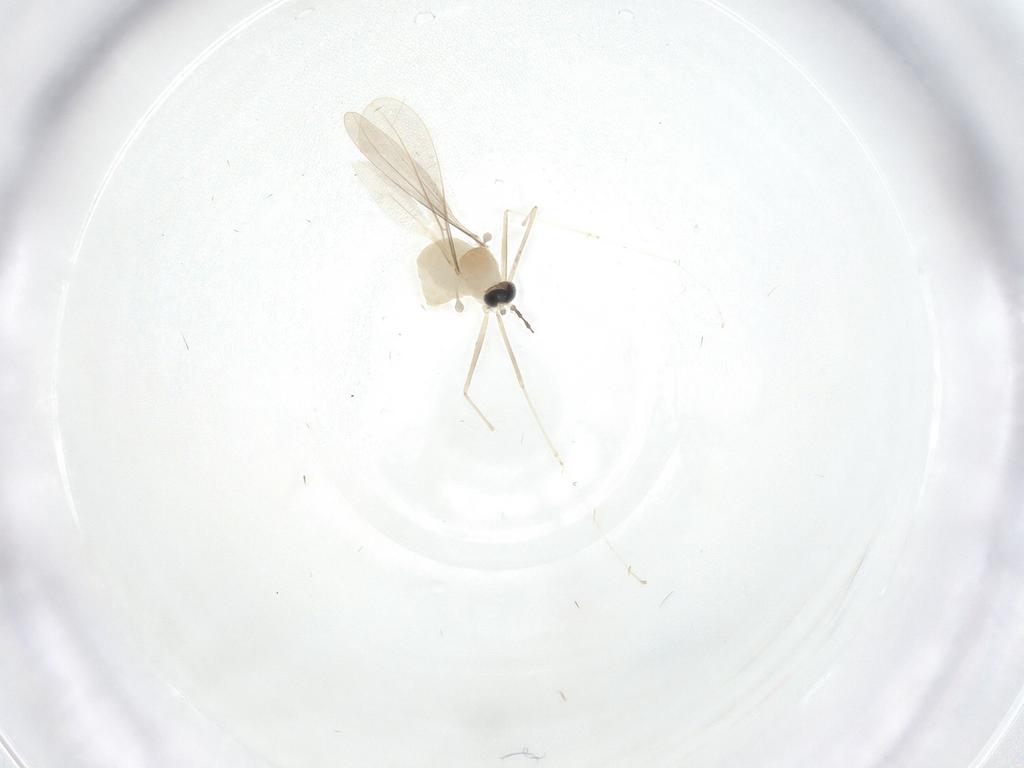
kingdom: Animalia
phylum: Arthropoda
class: Insecta
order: Diptera
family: Cecidomyiidae
